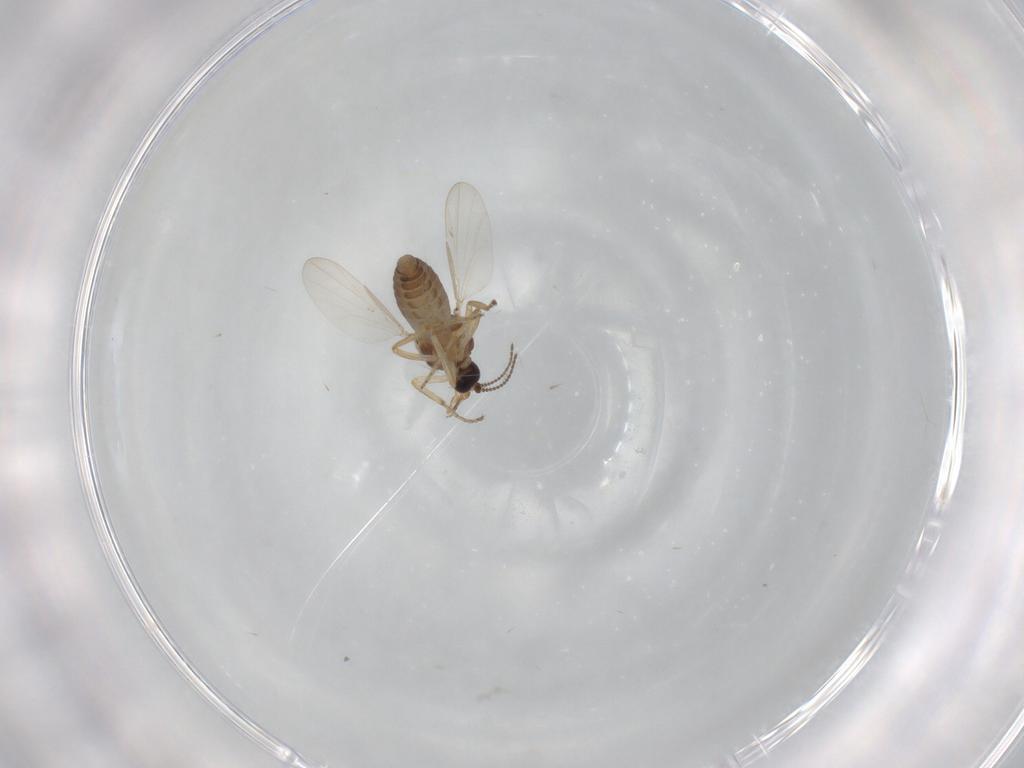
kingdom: Animalia
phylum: Arthropoda
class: Insecta
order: Diptera
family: Ceratopogonidae
